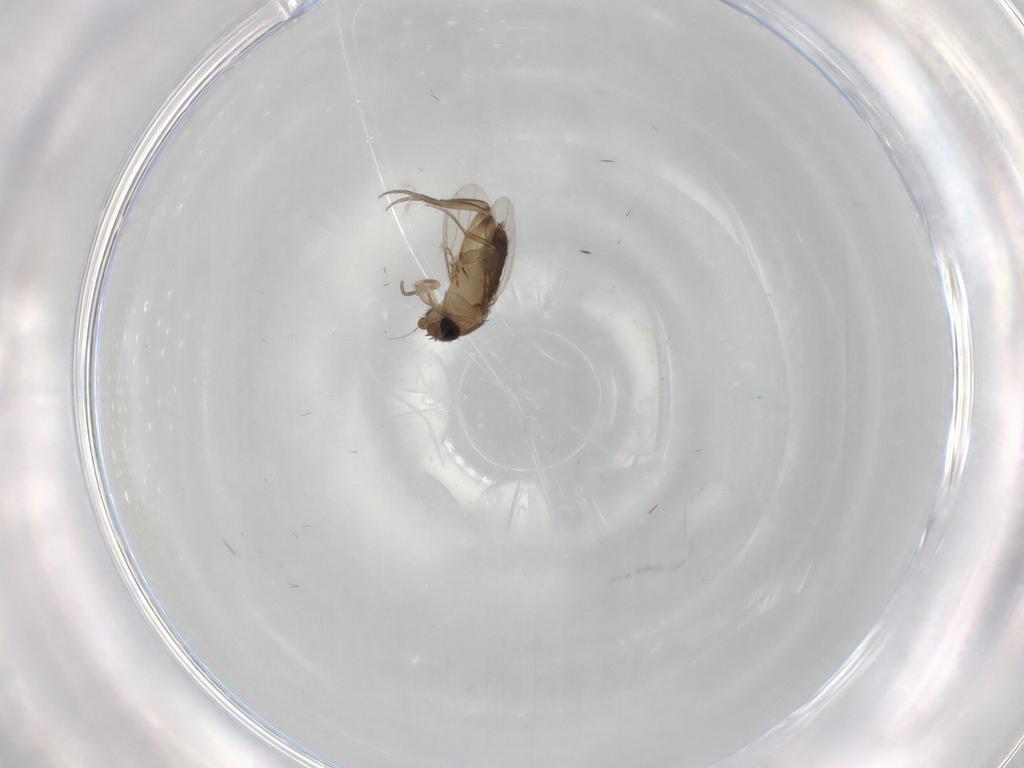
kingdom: Animalia
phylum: Arthropoda
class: Insecta
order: Diptera
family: Phoridae
